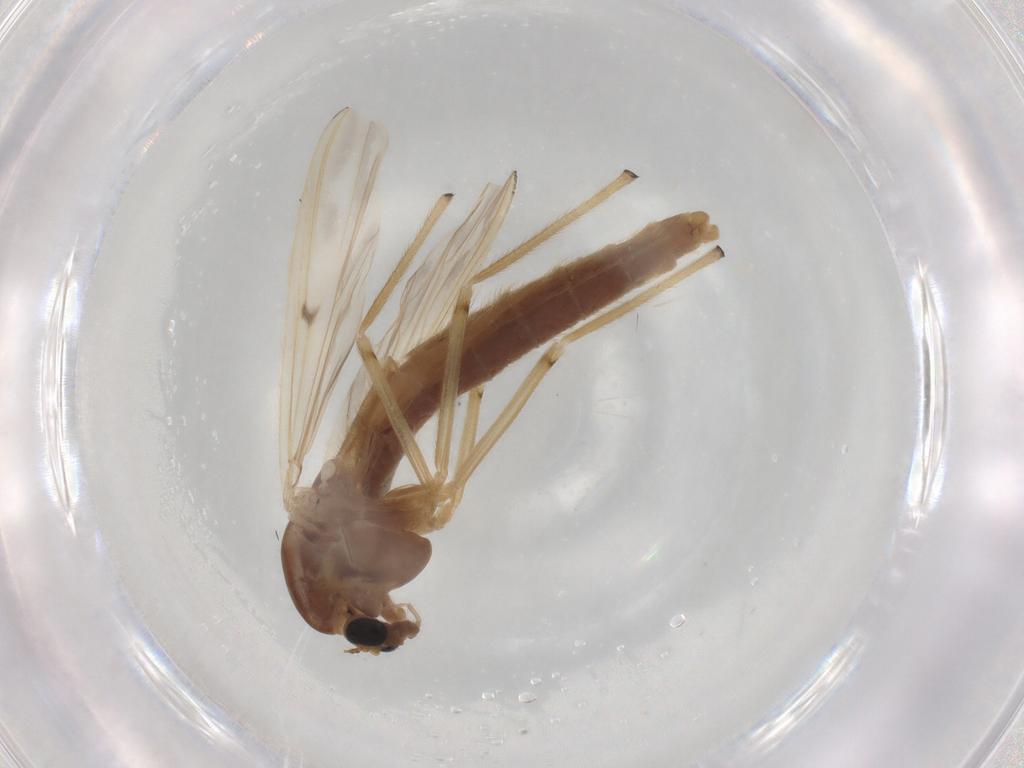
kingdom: Animalia
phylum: Arthropoda
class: Insecta
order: Diptera
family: Chironomidae
